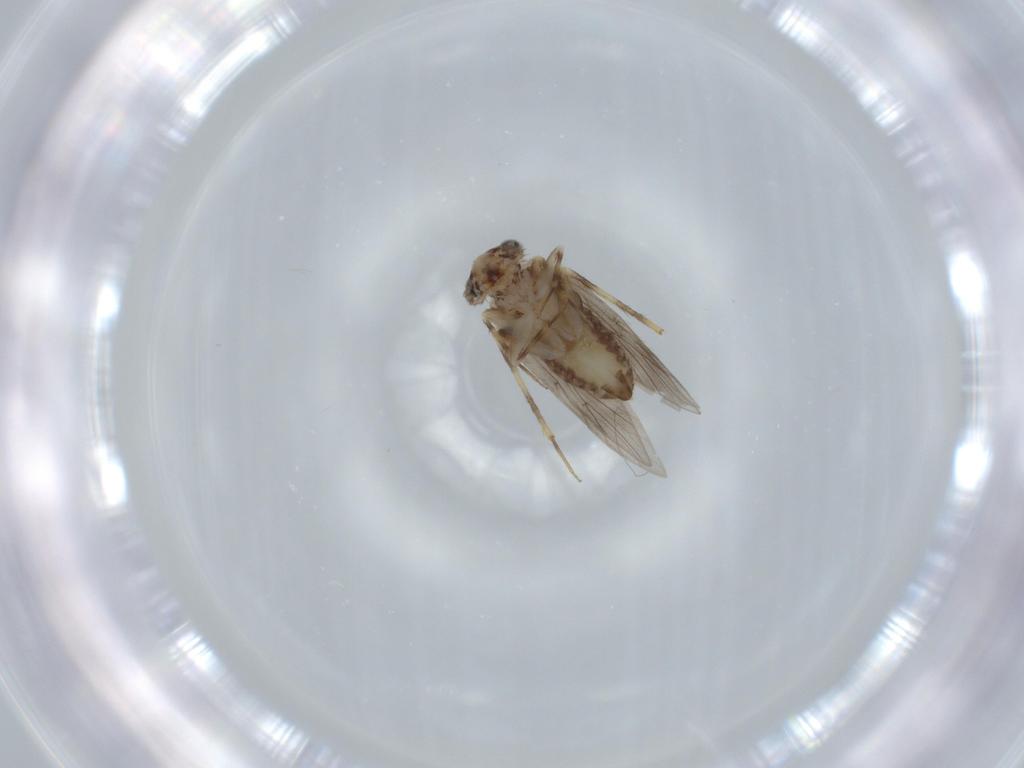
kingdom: Animalia
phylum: Arthropoda
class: Insecta
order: Psocodea
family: Lepidopsocidae
